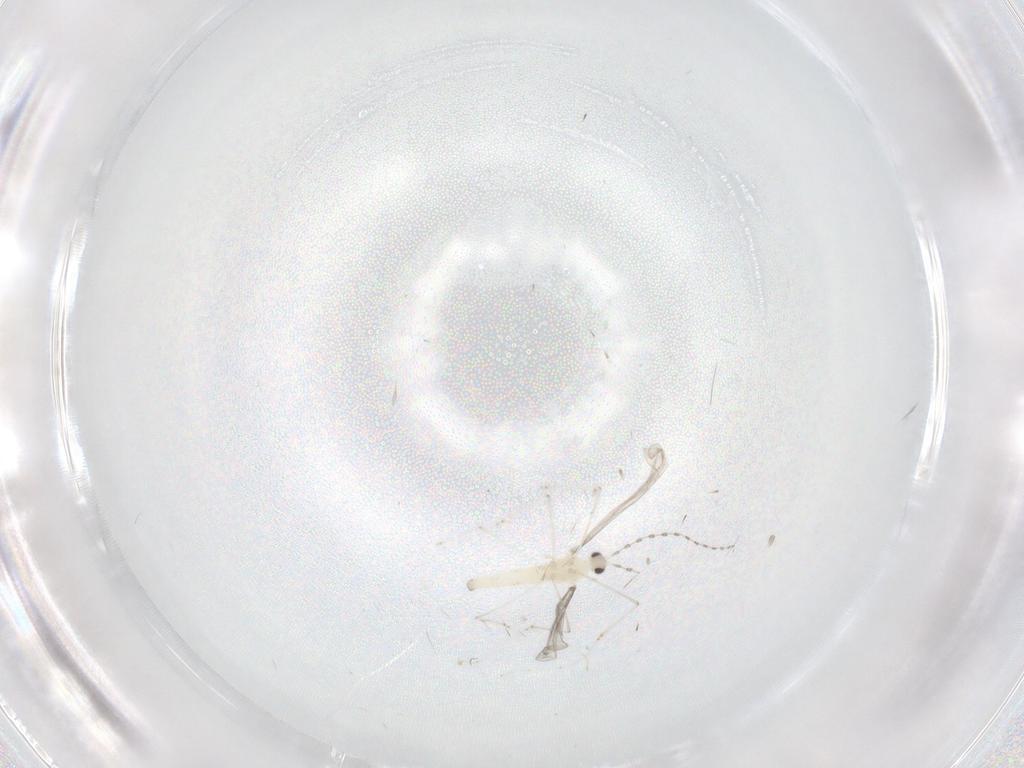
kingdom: Animalia
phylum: Arthropoda
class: Insecta
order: Diptera
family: Cecidomyiidae
